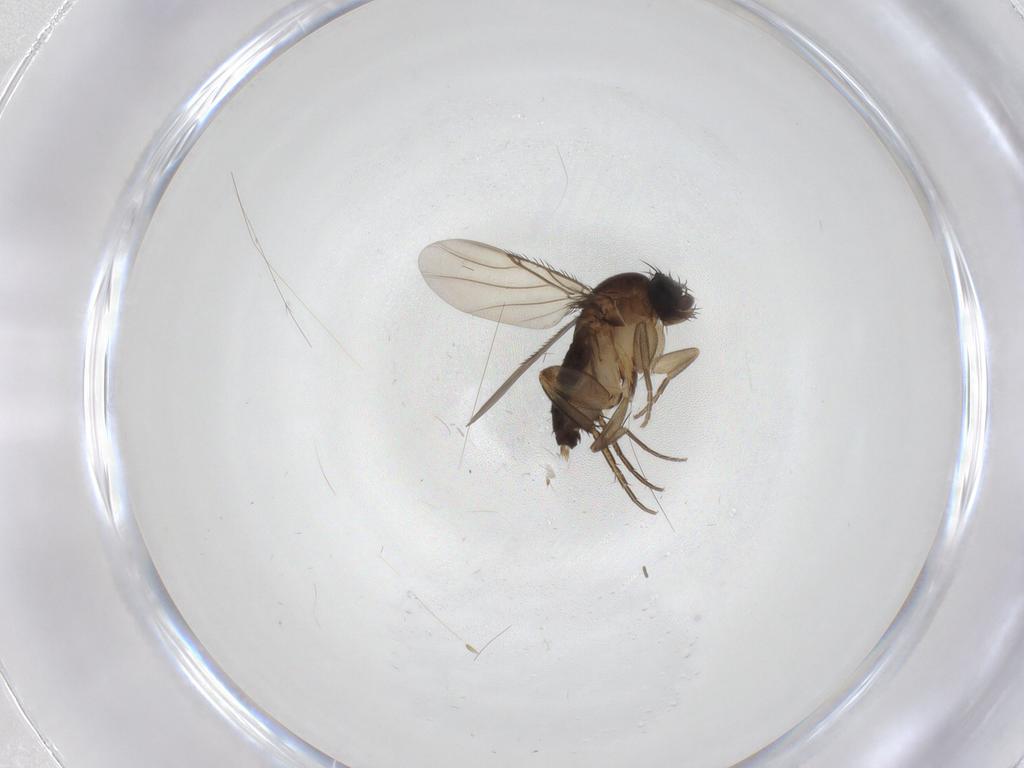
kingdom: Animalia
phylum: Arthropoda
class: Insecta
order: Diptera
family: Phoridae
